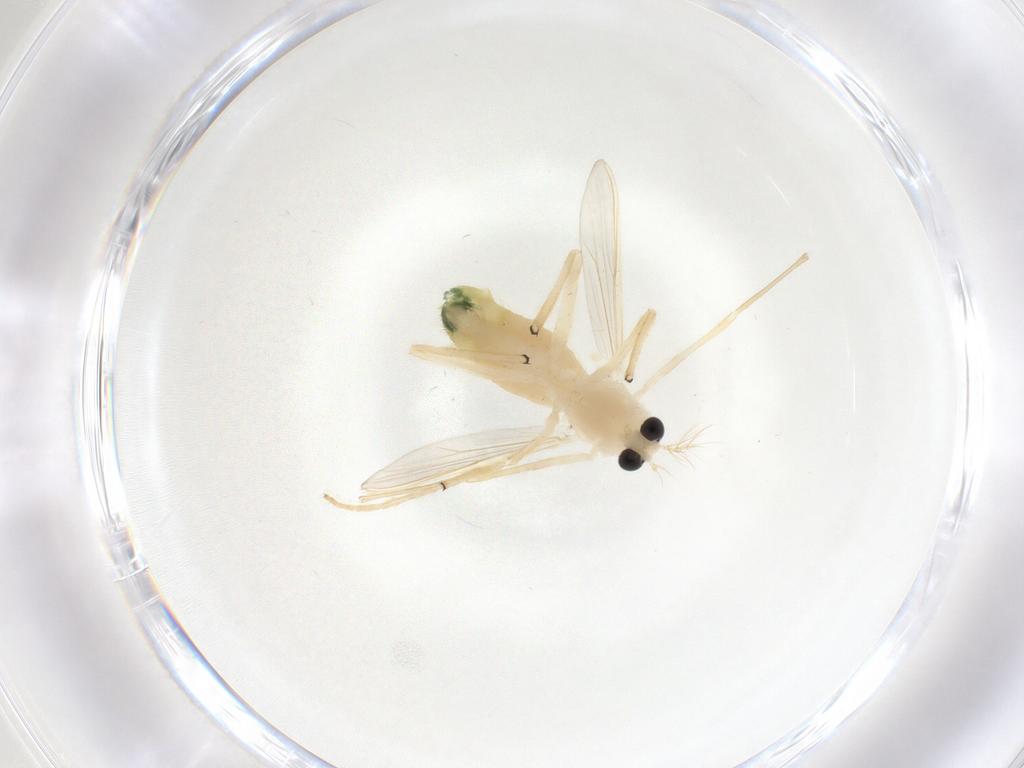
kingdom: Animalia
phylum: Arthropoda
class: Insecta
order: Diptera
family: Chironomidae
